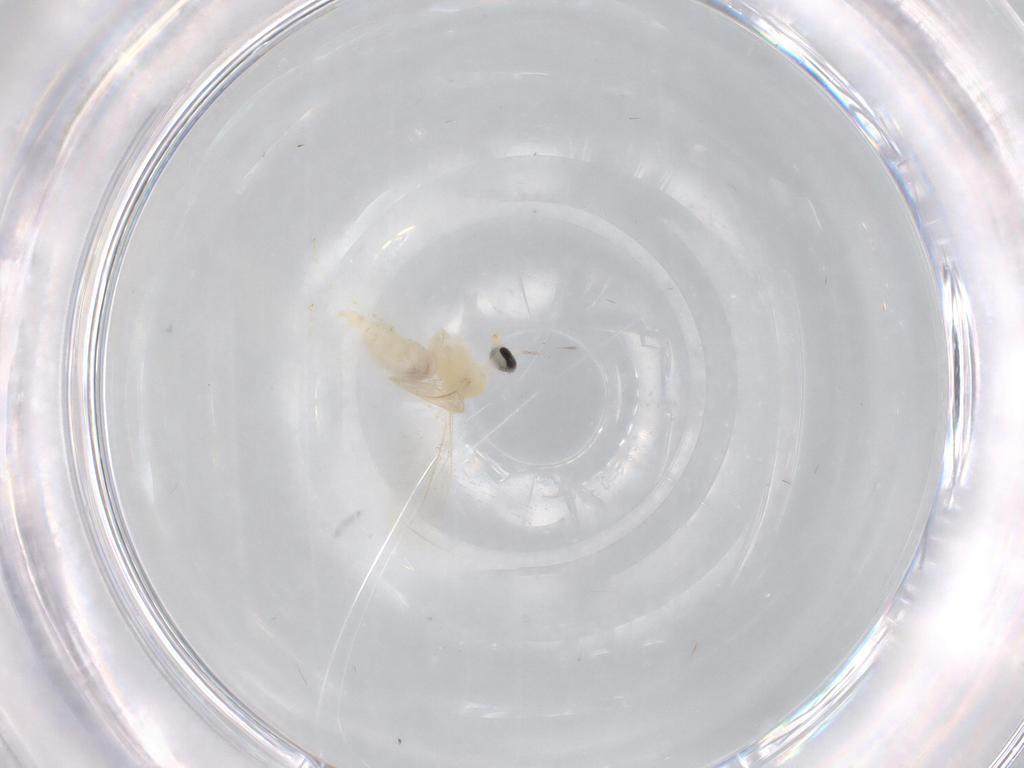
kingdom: Animalia
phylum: Arthropoda
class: Insecta
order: Diptera
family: Cecidomyiidae
